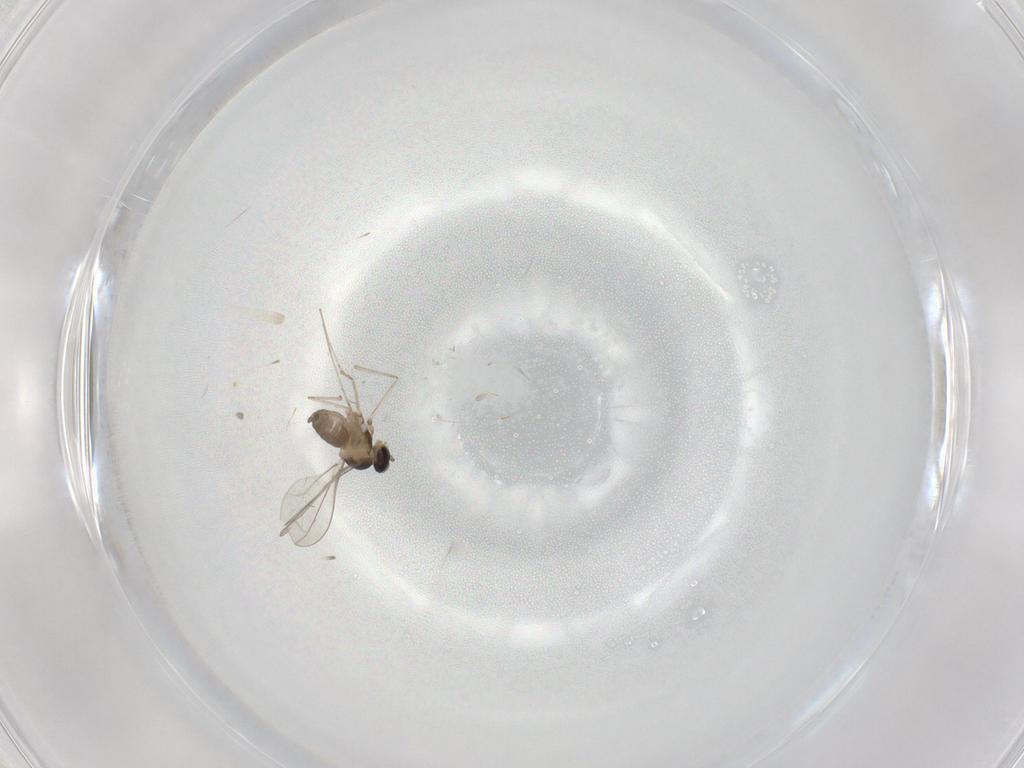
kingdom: Animalia
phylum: Arthropoda
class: Insecta
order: Diptera
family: Cecidomyiidae
